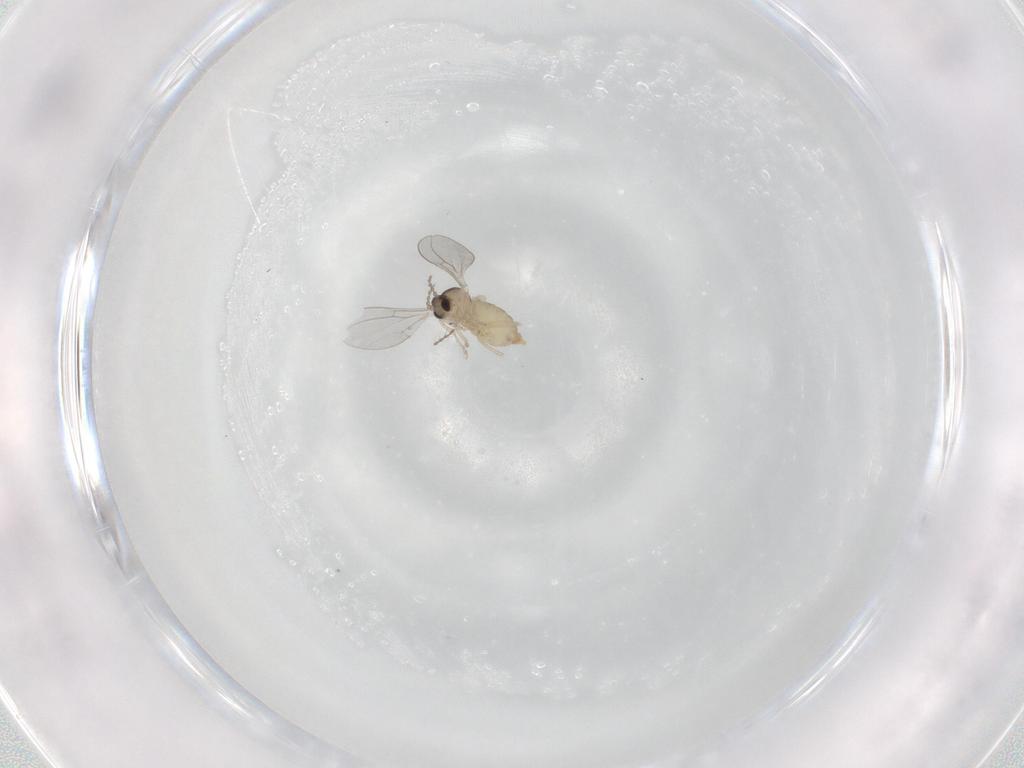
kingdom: Animalia
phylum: Arthropoda
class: Insecta
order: Diptera
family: Cecidomyiidae
